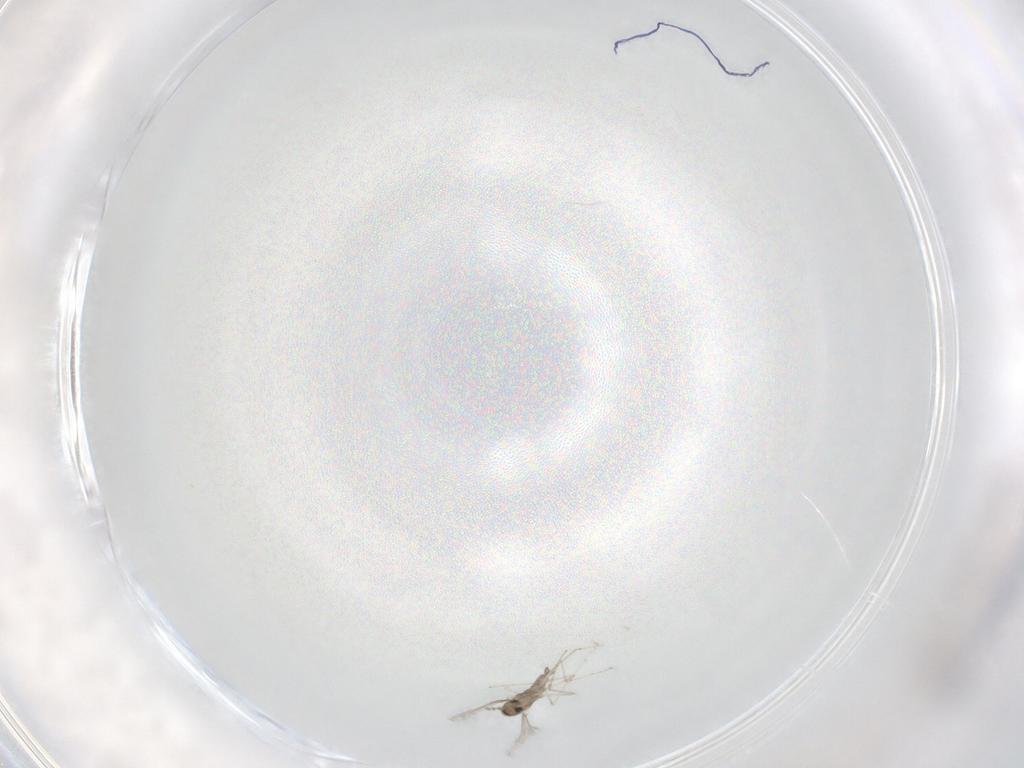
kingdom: Animalia
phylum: Arthropoda
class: Insecta
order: Diptera
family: Cecidomyiidae
